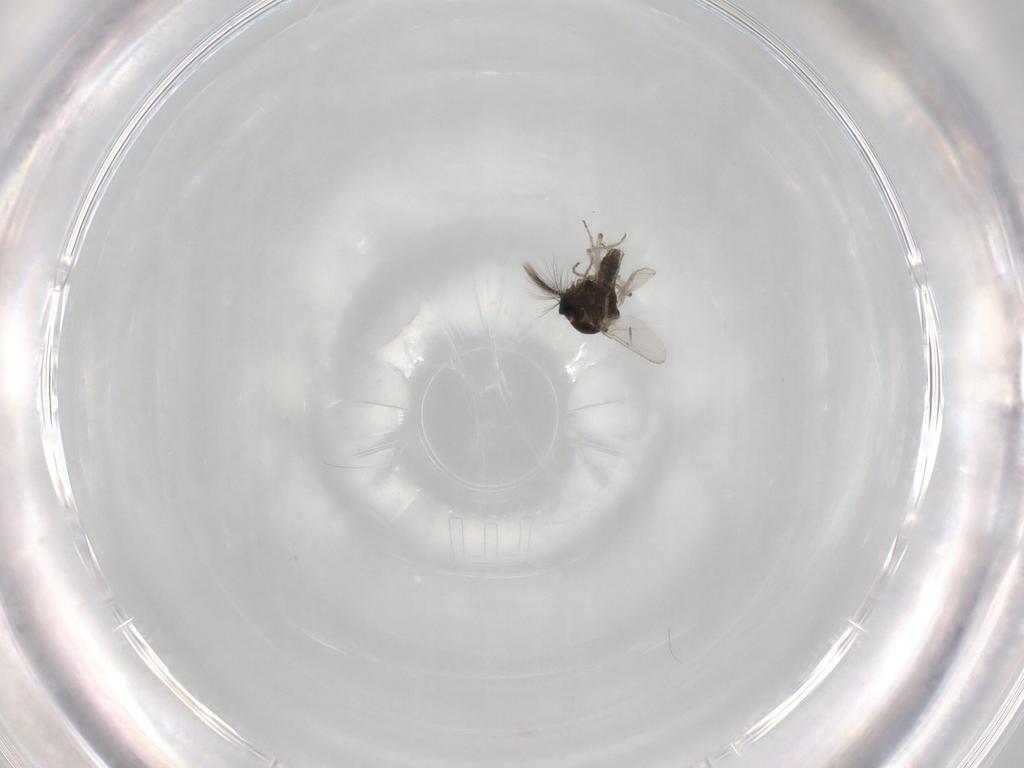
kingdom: Animalia
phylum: Arthropoda
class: Insecta
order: Diptera
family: Ceratopogonidae
